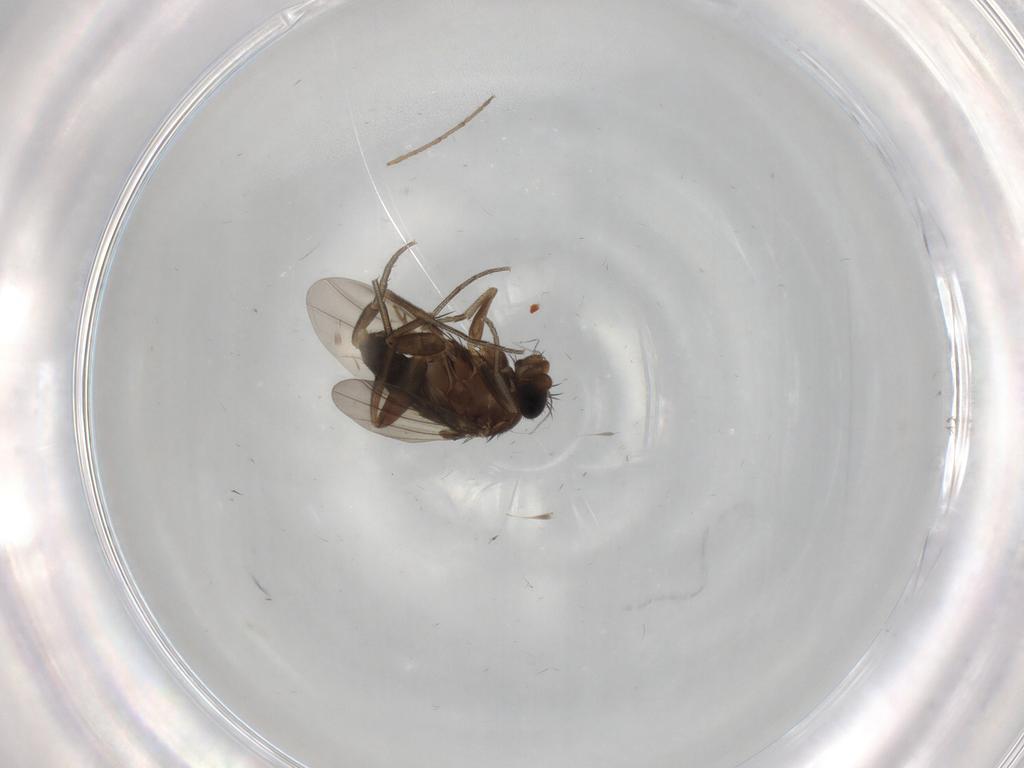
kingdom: Animalia
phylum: Arthropoda
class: Insecta
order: Diptera
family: Phoridae
